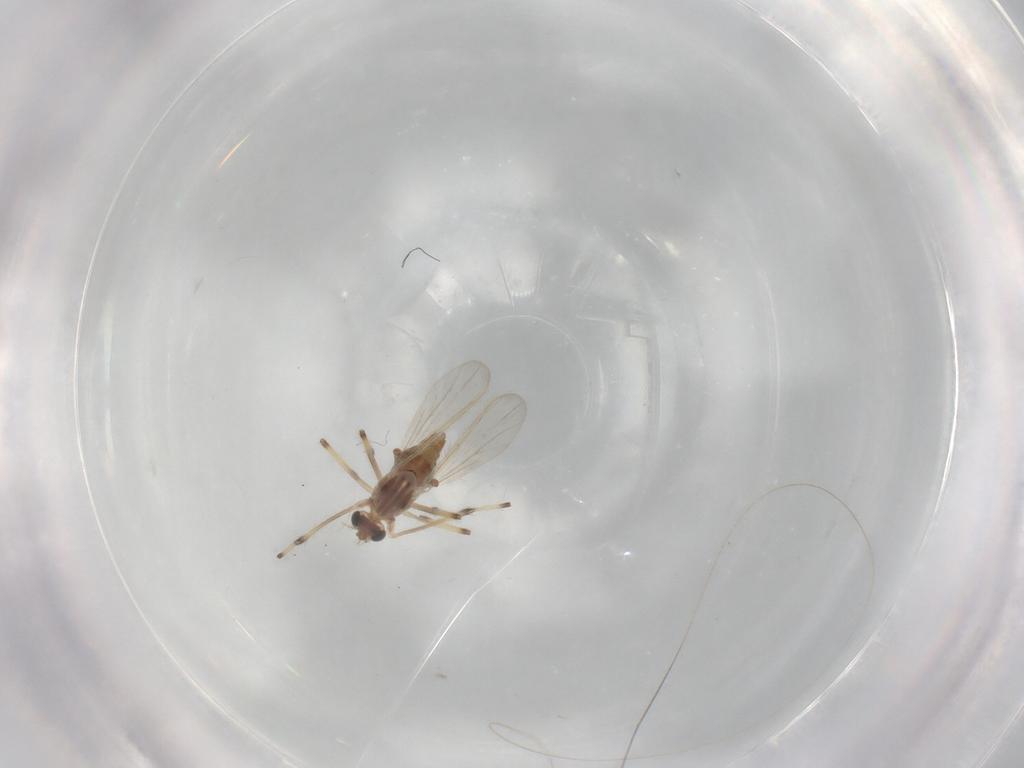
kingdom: Animalia
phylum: Arthropoda
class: Insecta
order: Diptera
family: Chironomidae
